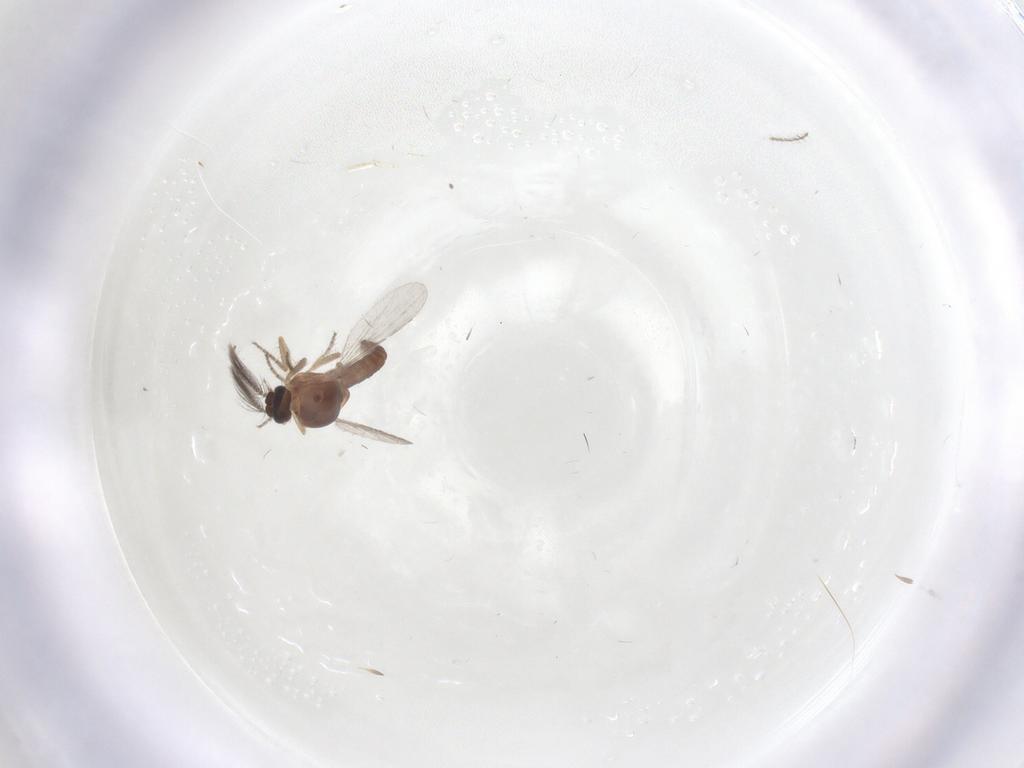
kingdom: Animalia
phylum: Arthropoda
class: Insecta
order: Diptera
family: Ceratopogonidae
